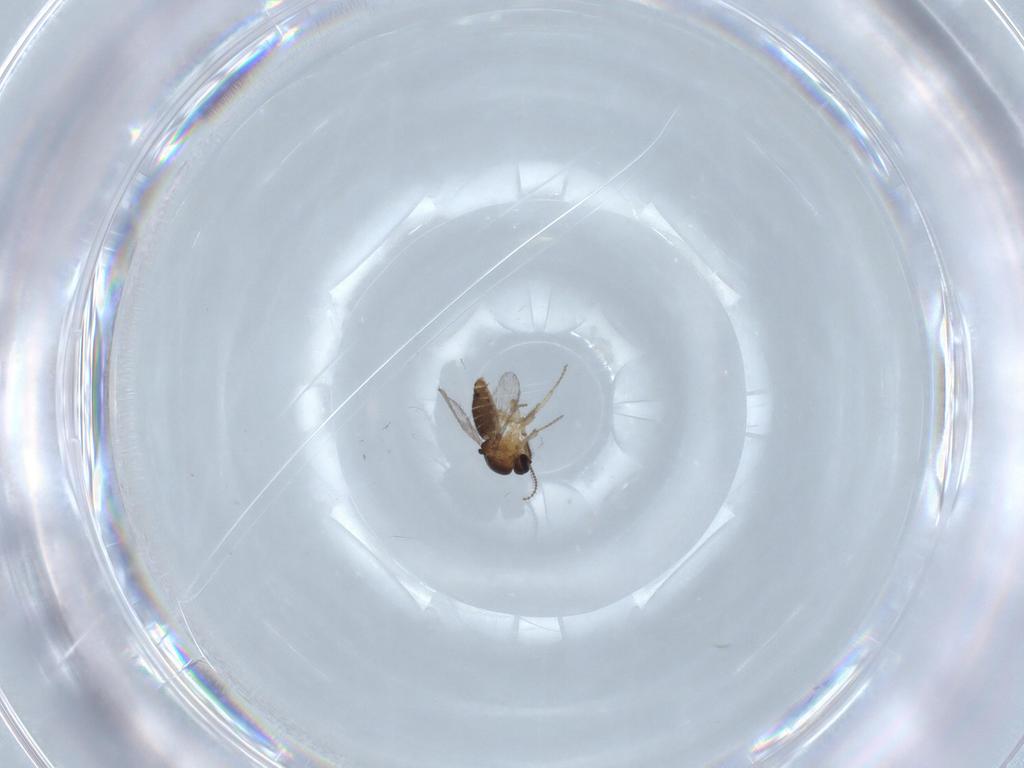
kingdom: Animalia
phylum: Arthropoda
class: Insecta
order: Diptera
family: Ceratopogonidae
